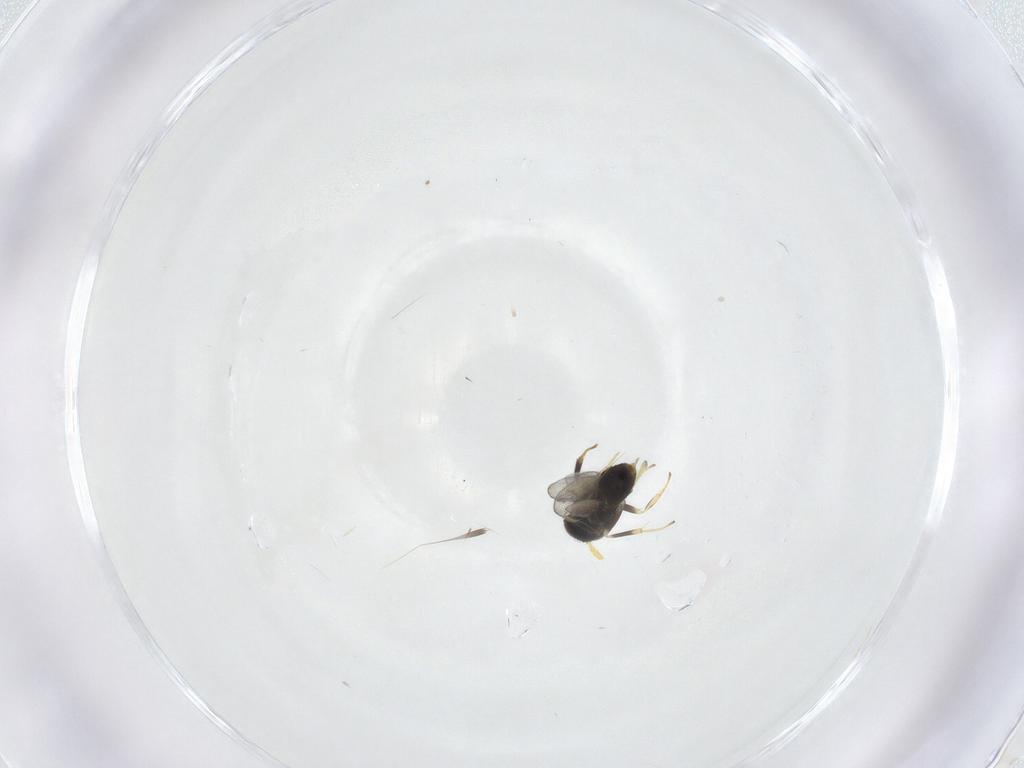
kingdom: Animalia
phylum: Arthropoda
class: Insecta
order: Hymenoptera
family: Aphelinidae
